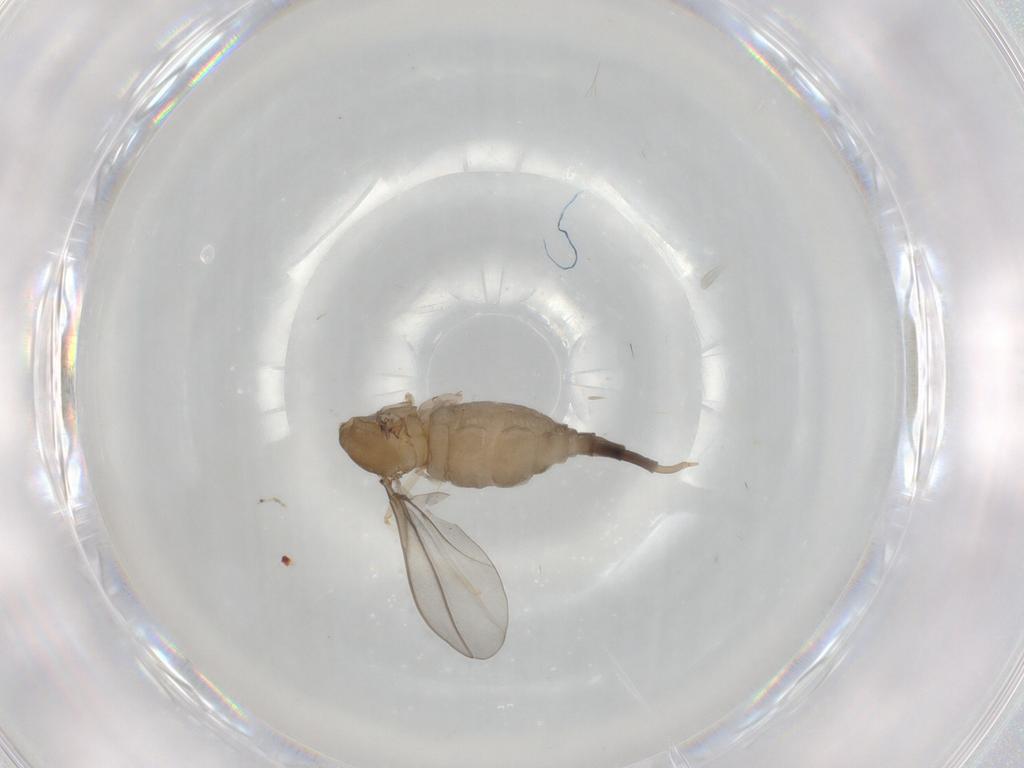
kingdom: Animalia
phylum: Arthropoda
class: Insecta
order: Diptera
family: Cecidomyiidae
